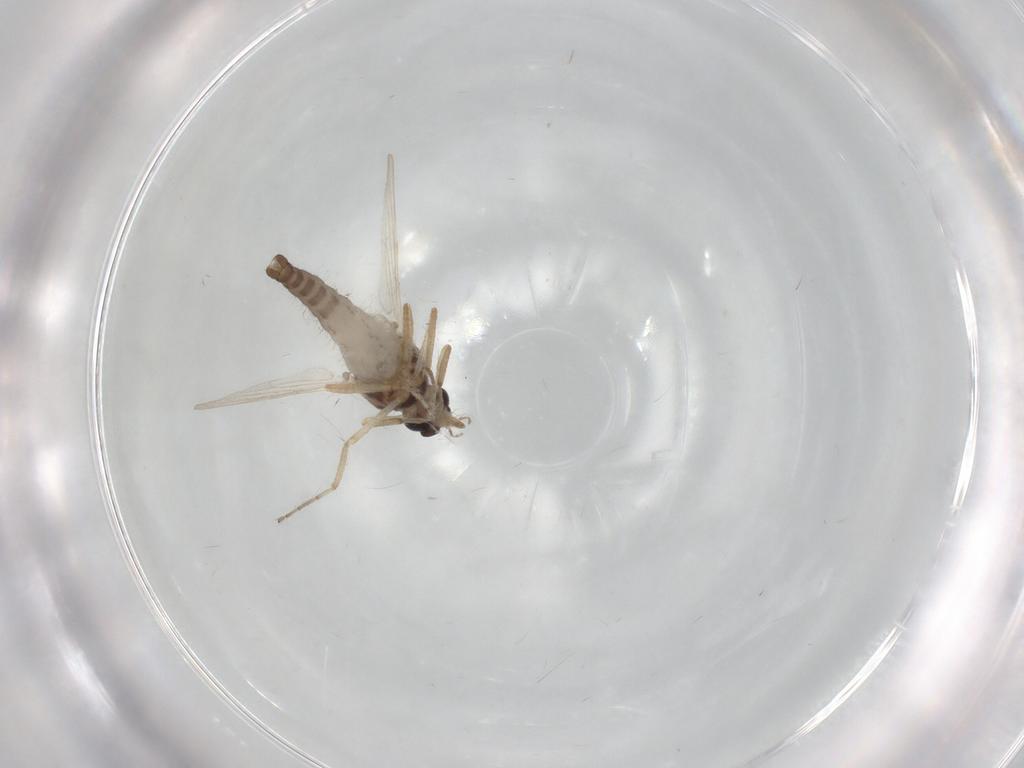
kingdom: Animalia
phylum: Arthropoda
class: Insecta
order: Diptera
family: Ceratopogonidae
